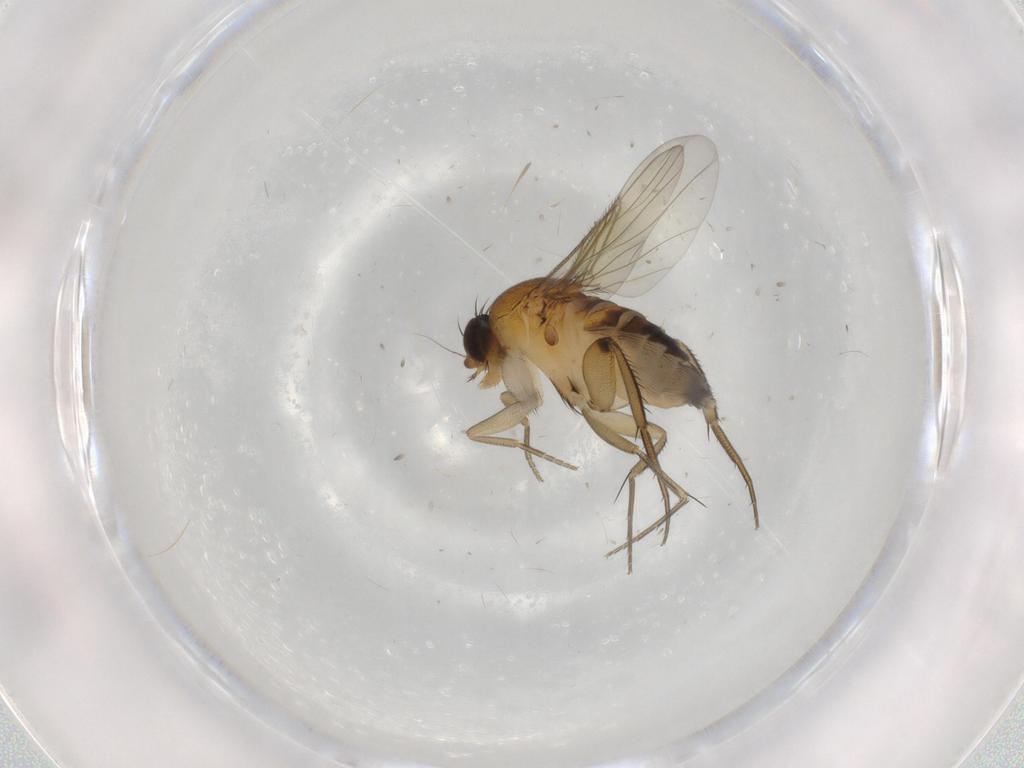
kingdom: Animalia
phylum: Arthropoda
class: Insecta
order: Diptera
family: Phoridae
